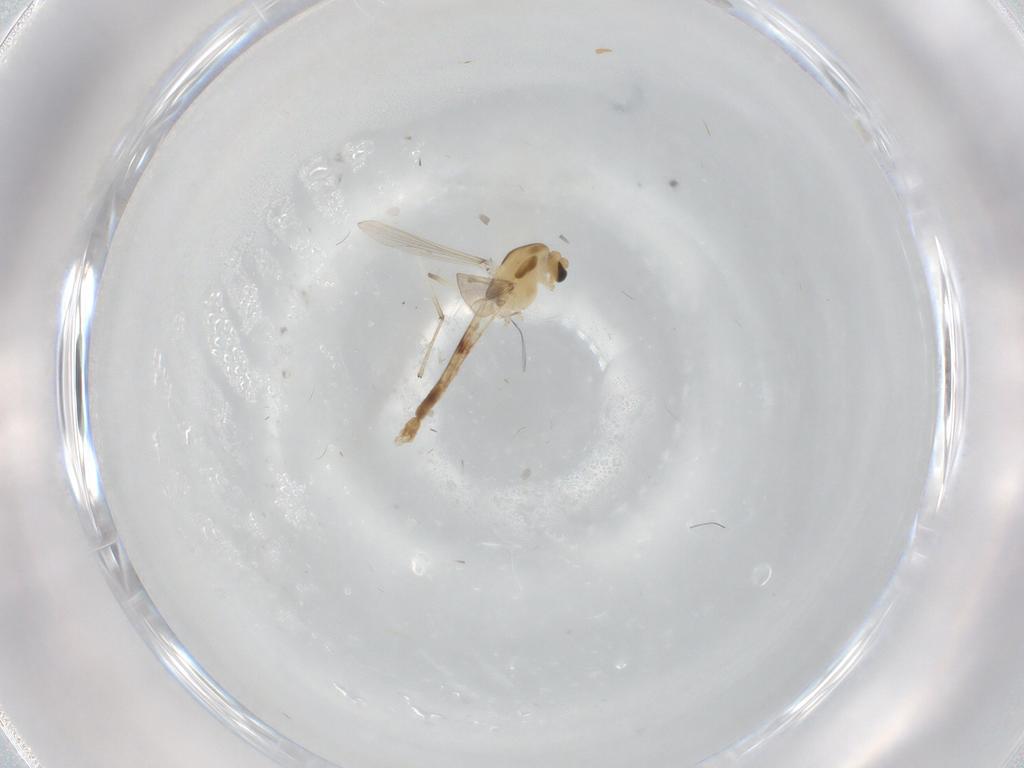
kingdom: Animalia
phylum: Arthropoda
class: Insecta
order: Diptera
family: Chironomidae
